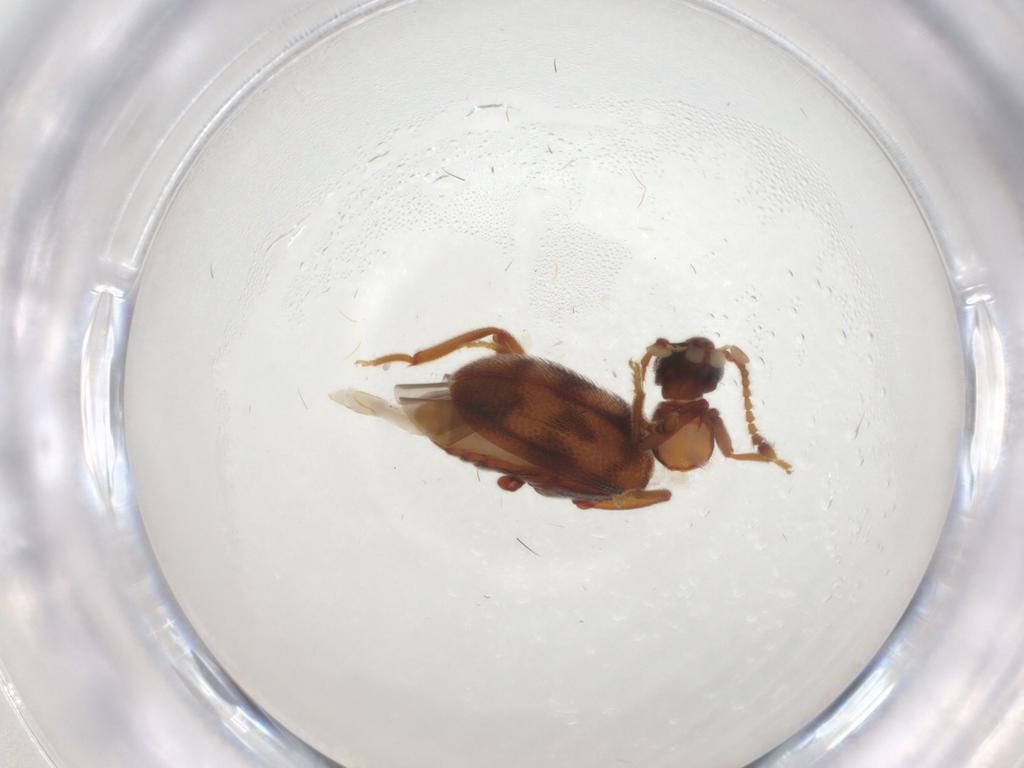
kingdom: Animalia
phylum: Arthropoda
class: Insecta
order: Coleoptera
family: Aderidae
